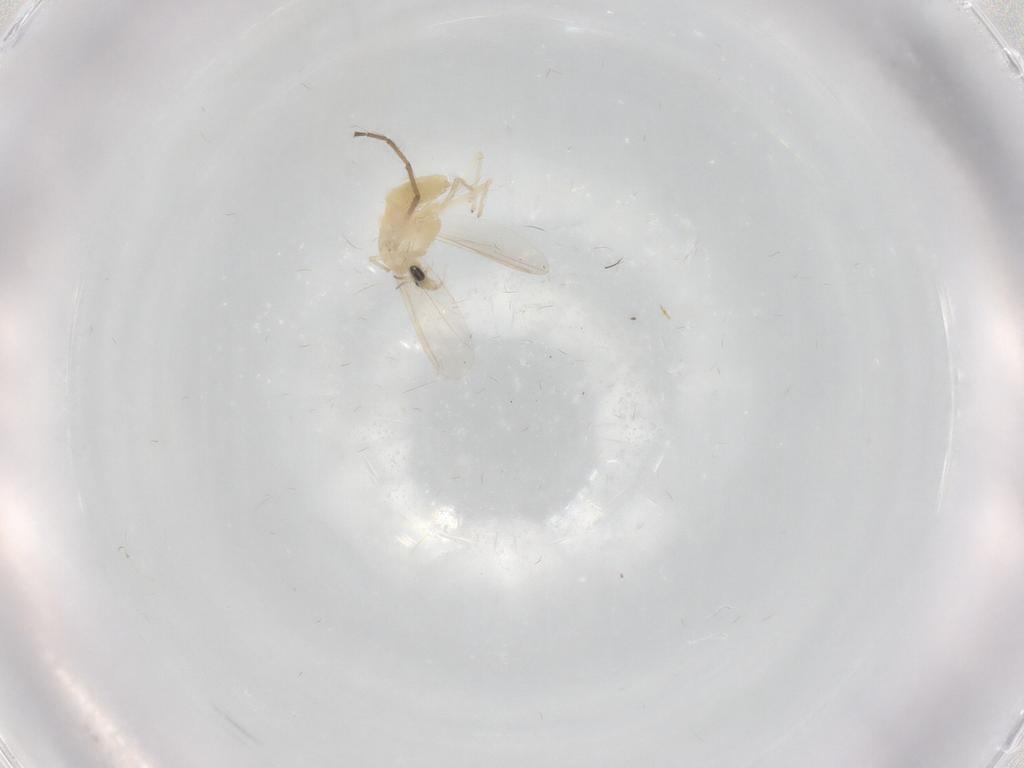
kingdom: Animalia
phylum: Arthropoda
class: Insecta
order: Diptera
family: Chironomidae
